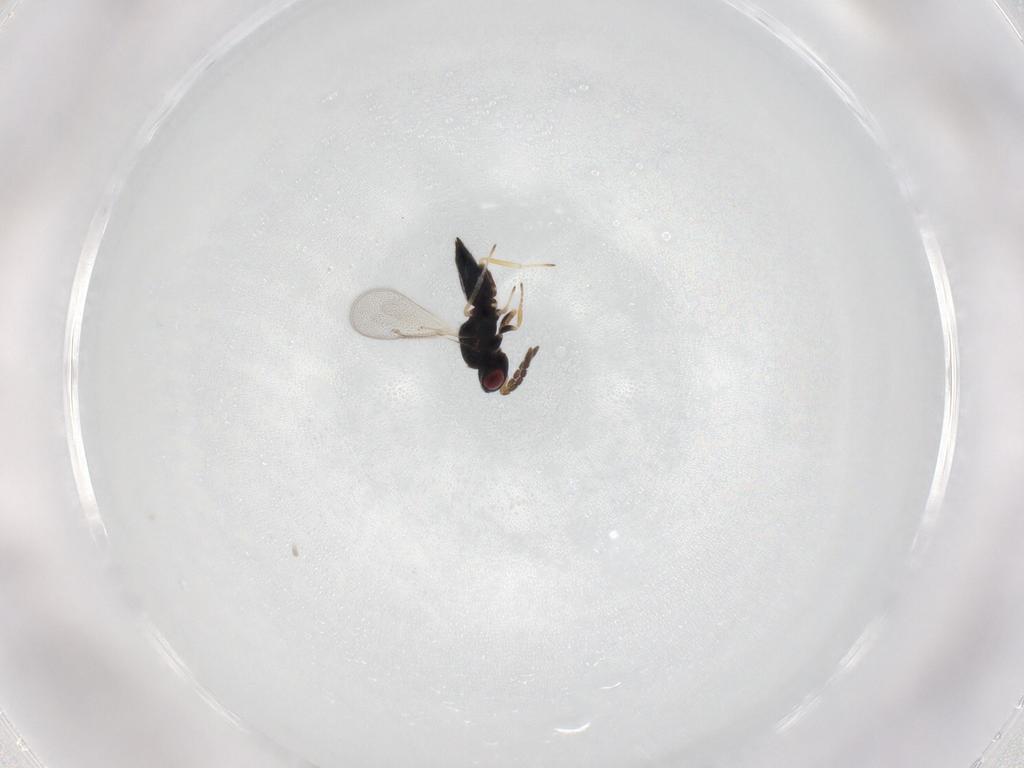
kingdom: Animalia
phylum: Arthropoda
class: Insecta
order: Hymenoptera
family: Eulophidae
